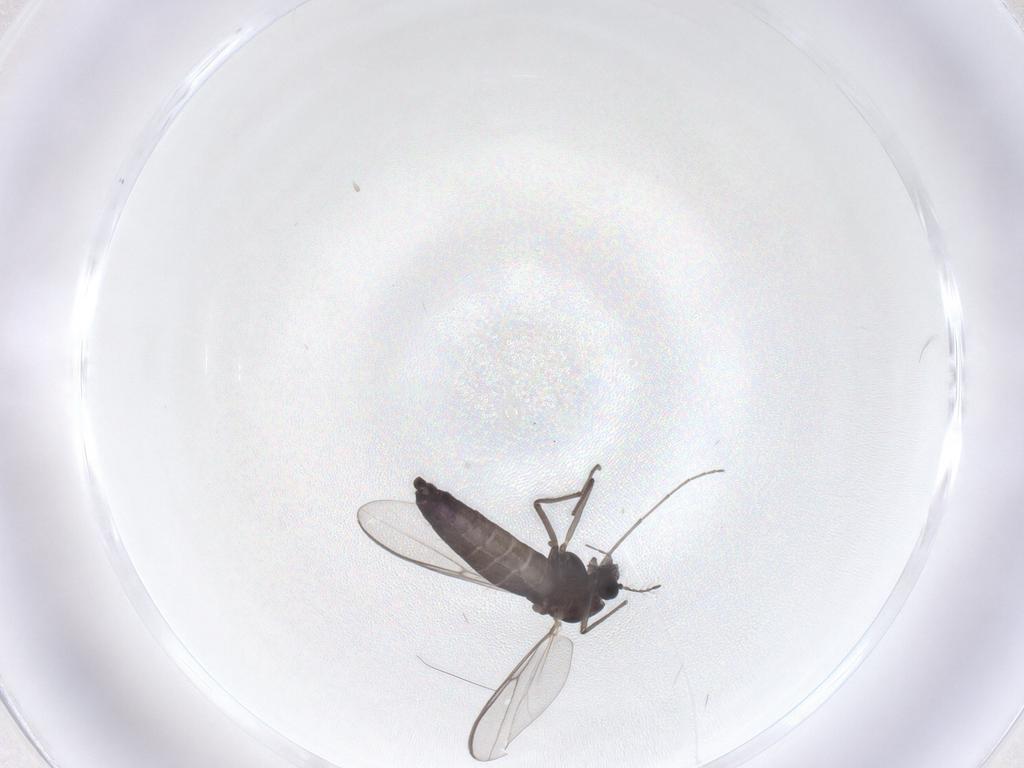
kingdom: Animalia
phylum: Arthropoda
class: Insecta
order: Diptera
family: Chironomidae
